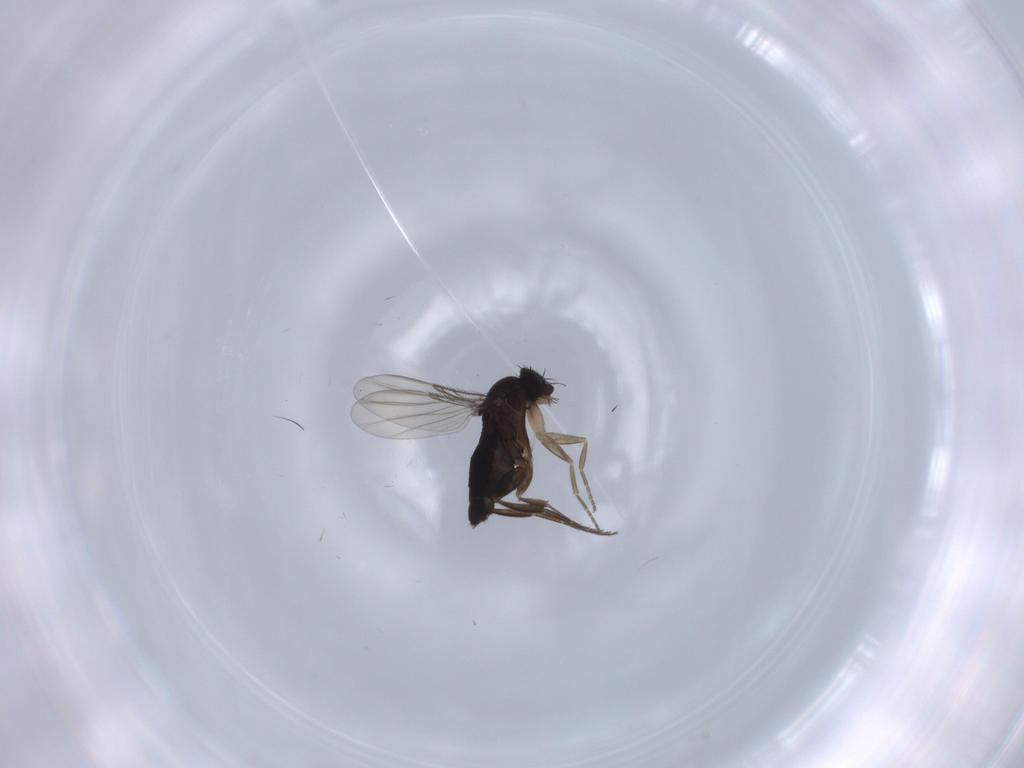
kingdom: Animalia
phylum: Arthropoda
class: Insecta
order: Diptera
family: Phoridae
